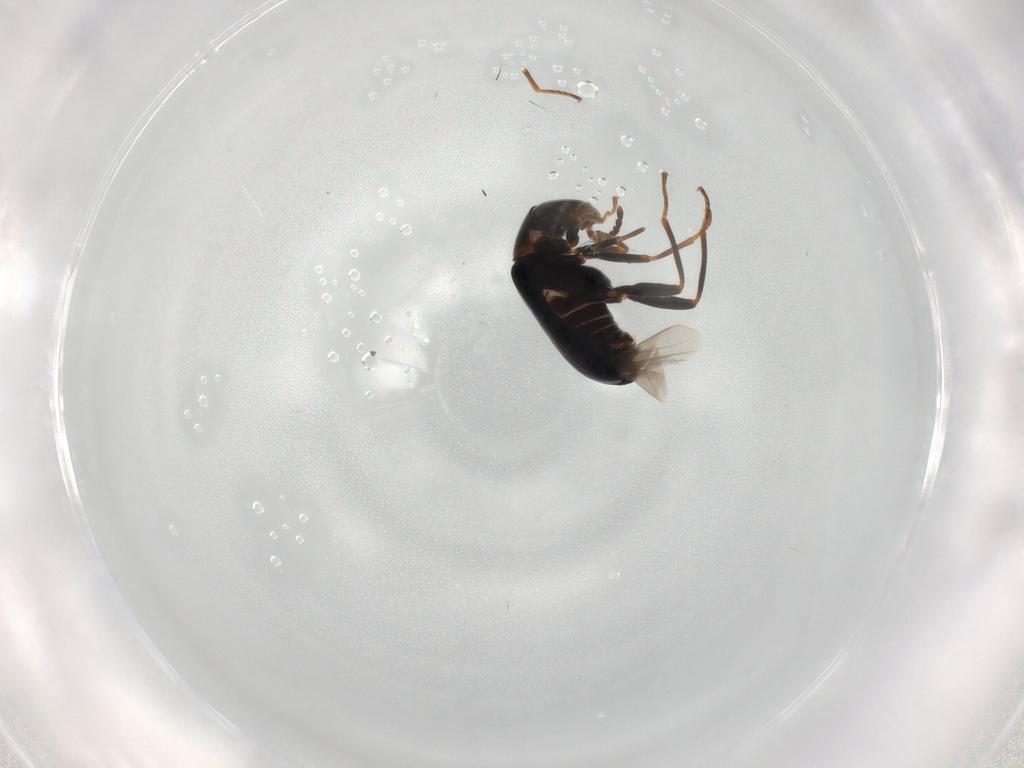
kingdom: Animalia
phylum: Arthropoda
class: Insecta
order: Coleoptera
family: Melyridae
